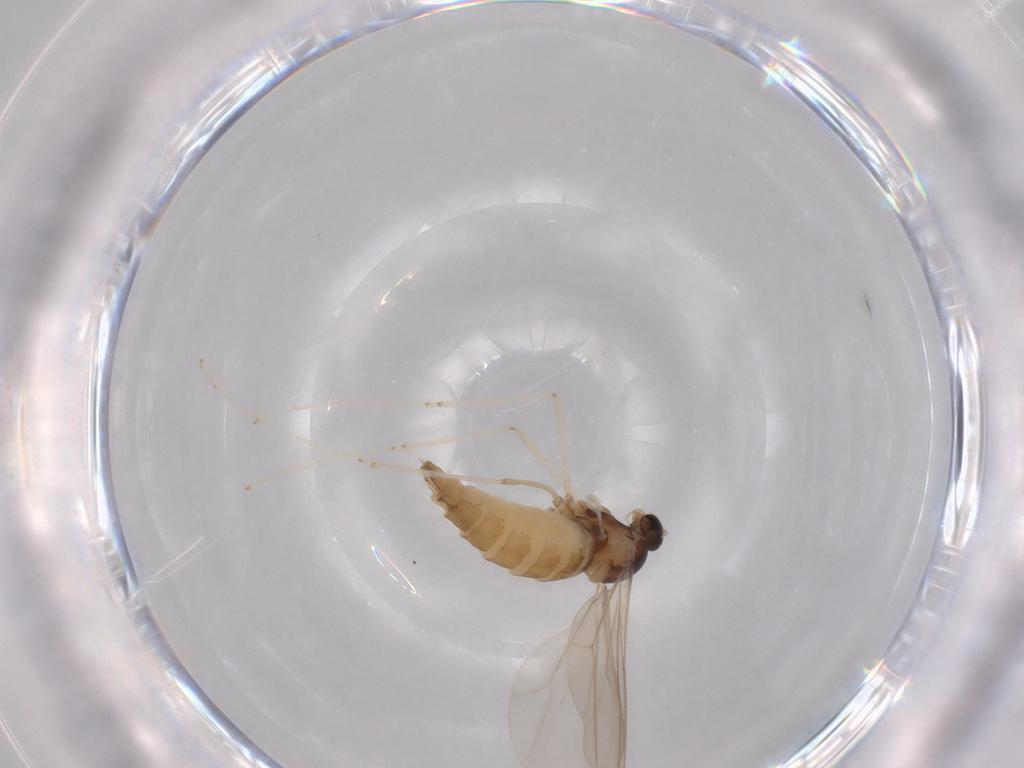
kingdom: Animalia
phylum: Arthropoda
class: Insecta
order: Diptera
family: Cecidomyiidae
